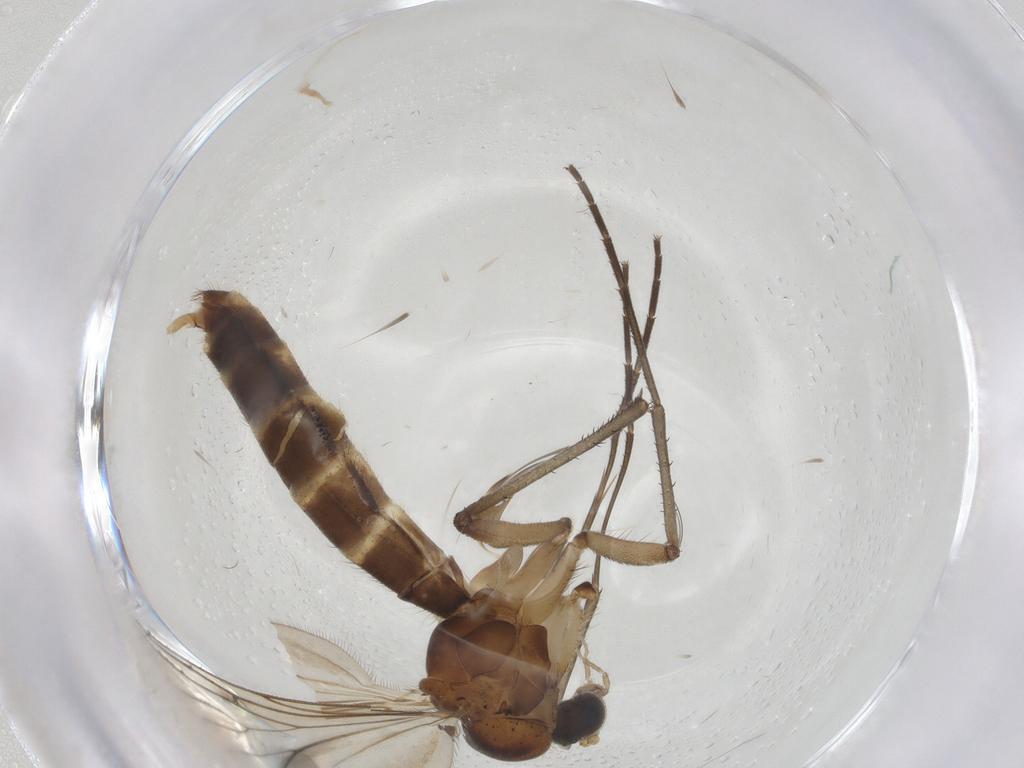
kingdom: Animalia
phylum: Arthropoda
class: Insecta
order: Diptera
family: Mycetophilidae
